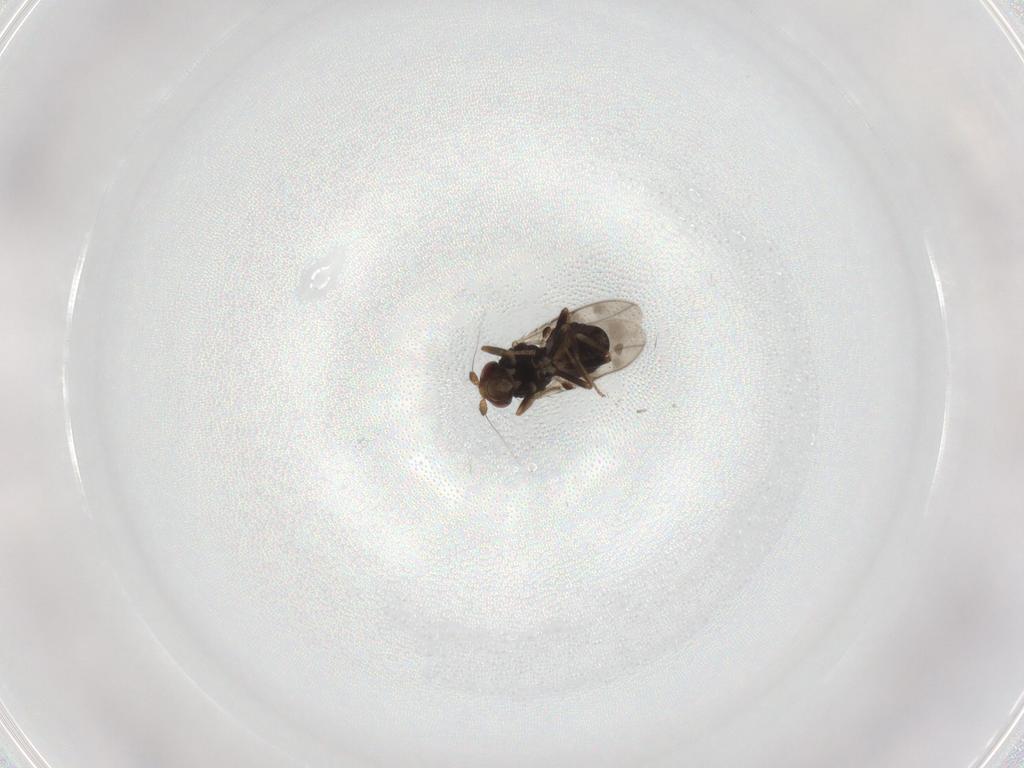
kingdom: Animalia
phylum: Arthropoda
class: Insecta
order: Diptera
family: Sphaeroceridae
